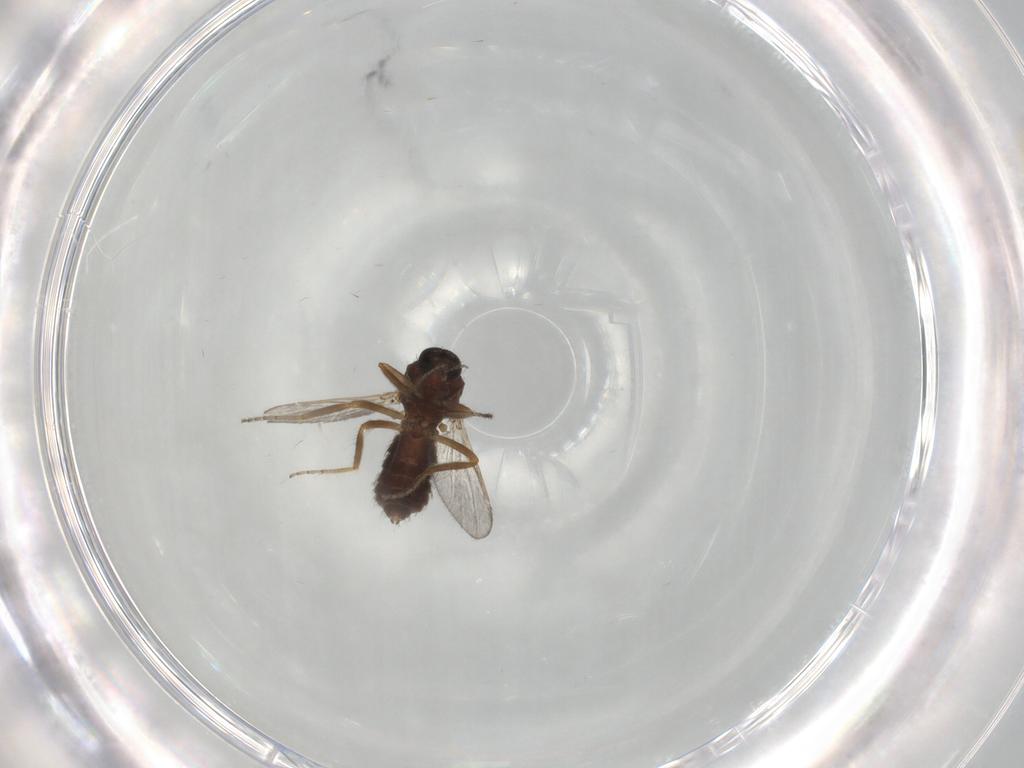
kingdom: Animalia
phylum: Arthropoda
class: Insecta
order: Diptera
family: Ceratopogonidae
